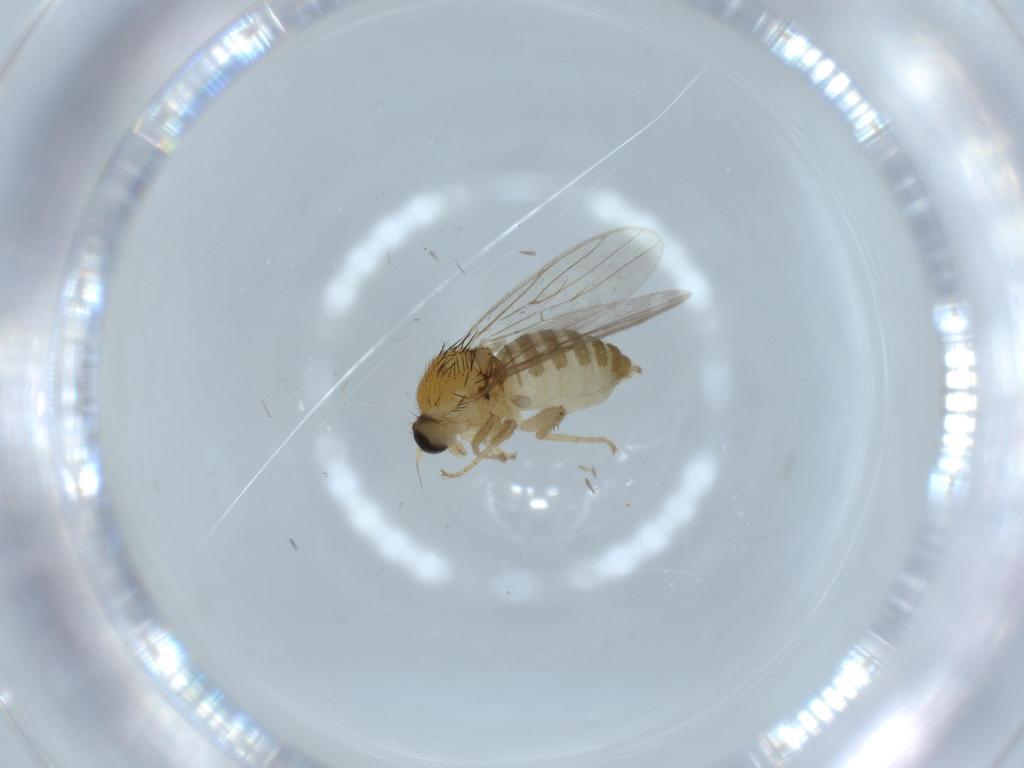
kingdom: Animalia
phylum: Arthropoda
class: Insecta
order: Diptera
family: Hybotidae
